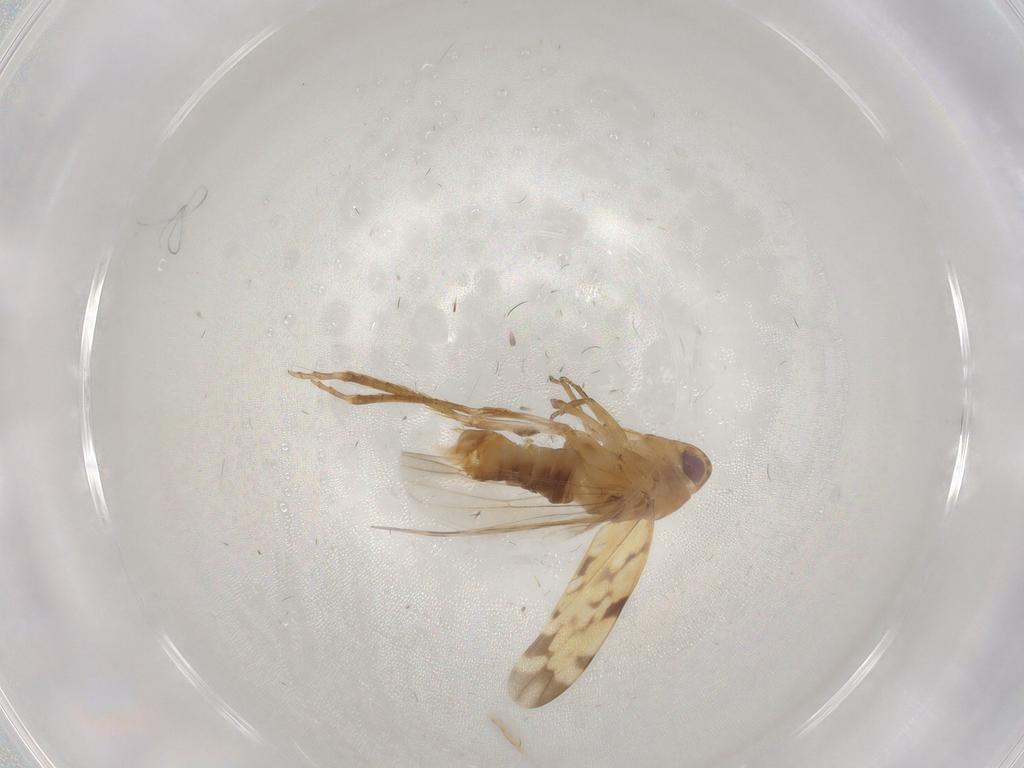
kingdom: Animalia
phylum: Arthropoda
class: Insecta
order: Hemiptera
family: Cicadellidae
